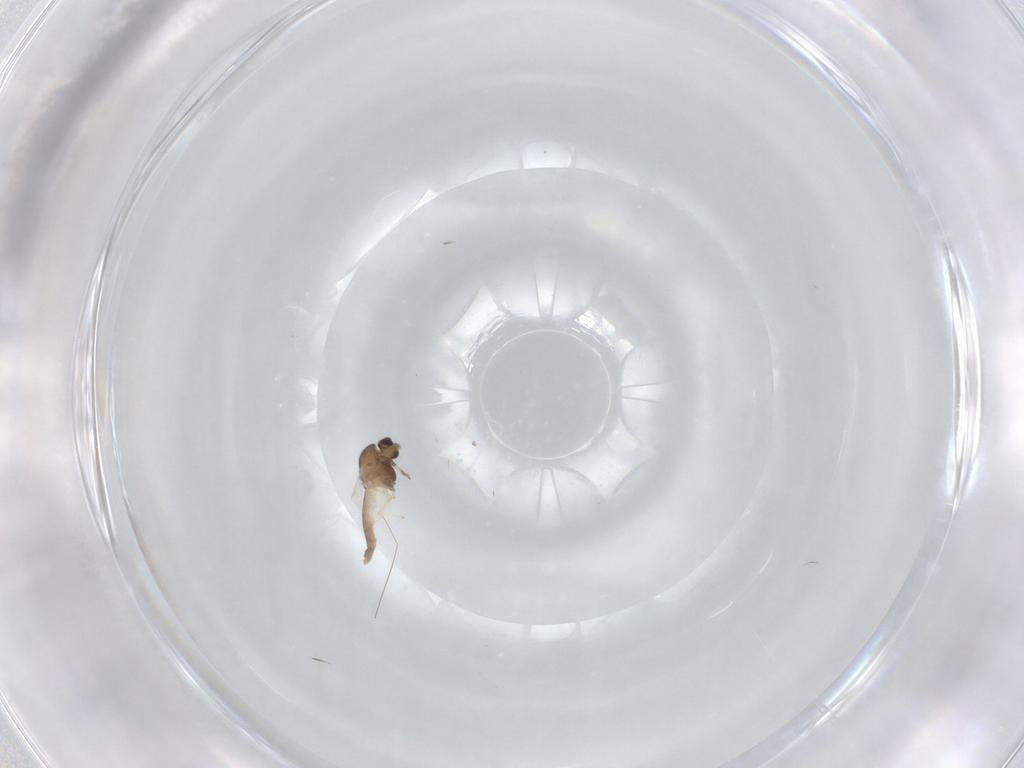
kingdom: Animalia
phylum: Arthropoda
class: Insecta
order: Diptera
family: Chironomidae
